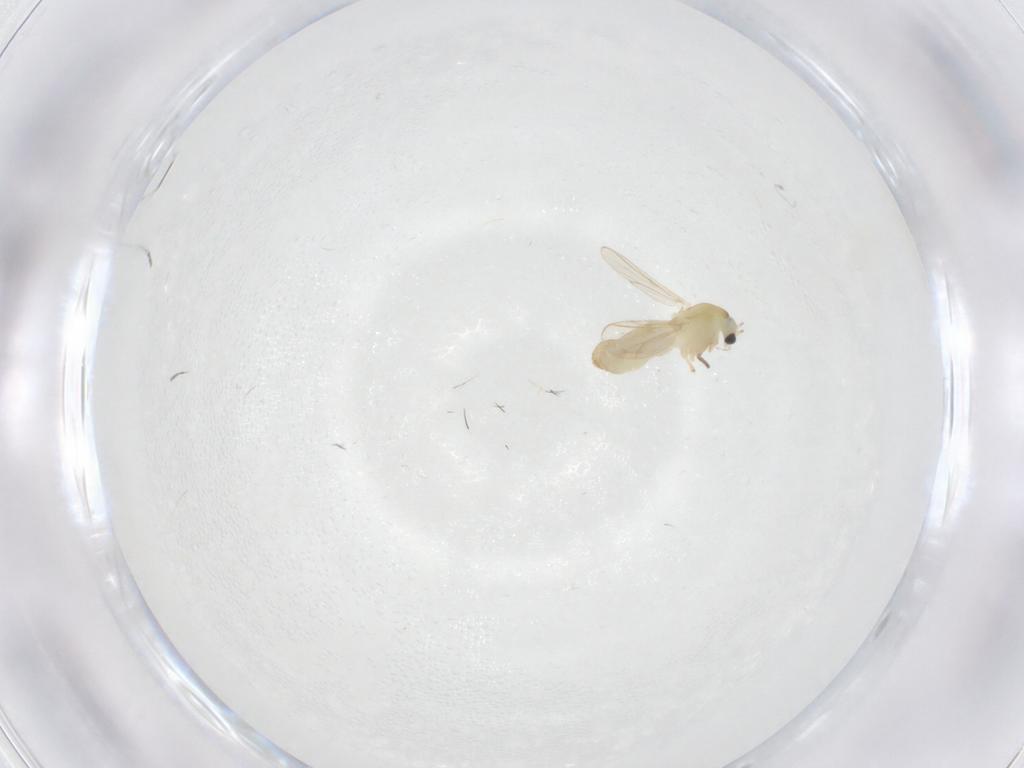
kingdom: Animalia
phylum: Arthropoda
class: Insecta
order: Diptera
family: Chironomidae
